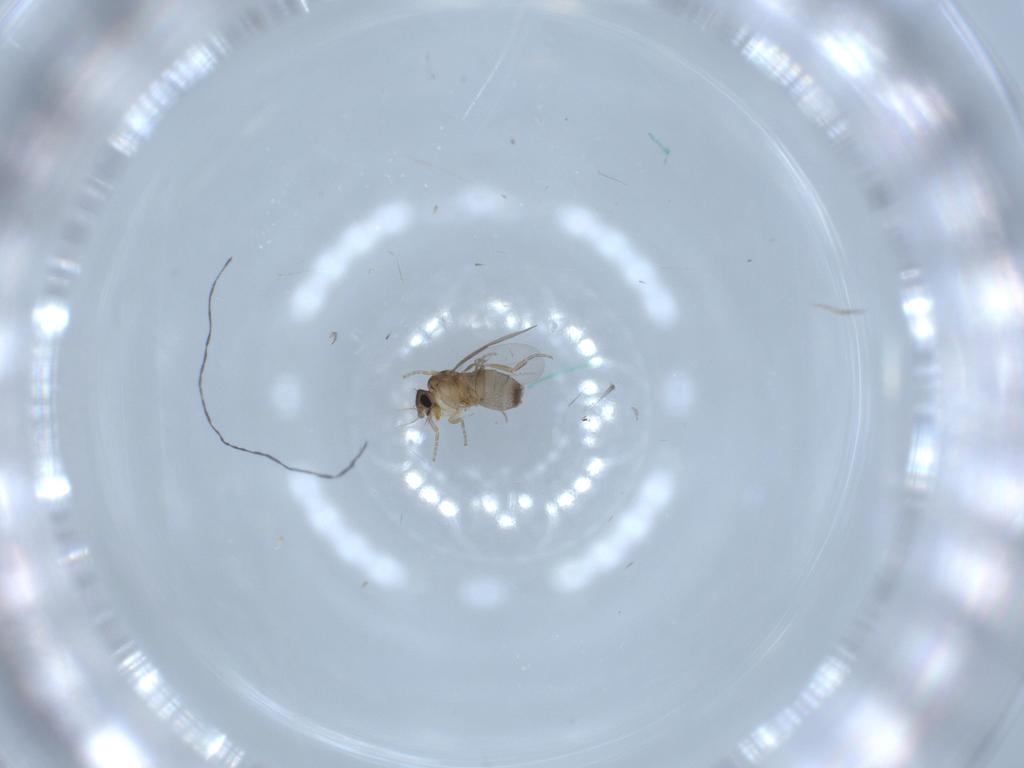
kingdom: Animalia
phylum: Arthropoda
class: Insecta
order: Diptera
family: Phoridae
